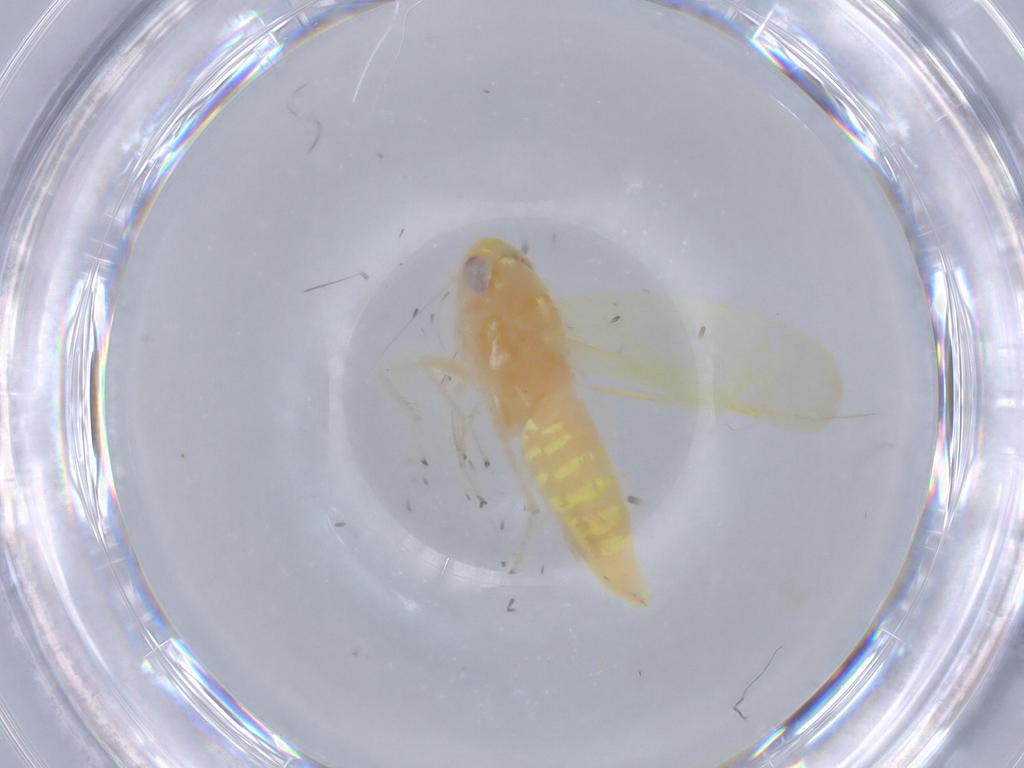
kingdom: Animalia
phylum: Arthropoda
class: Insecta
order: Hemiptera
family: Cicadellidae
